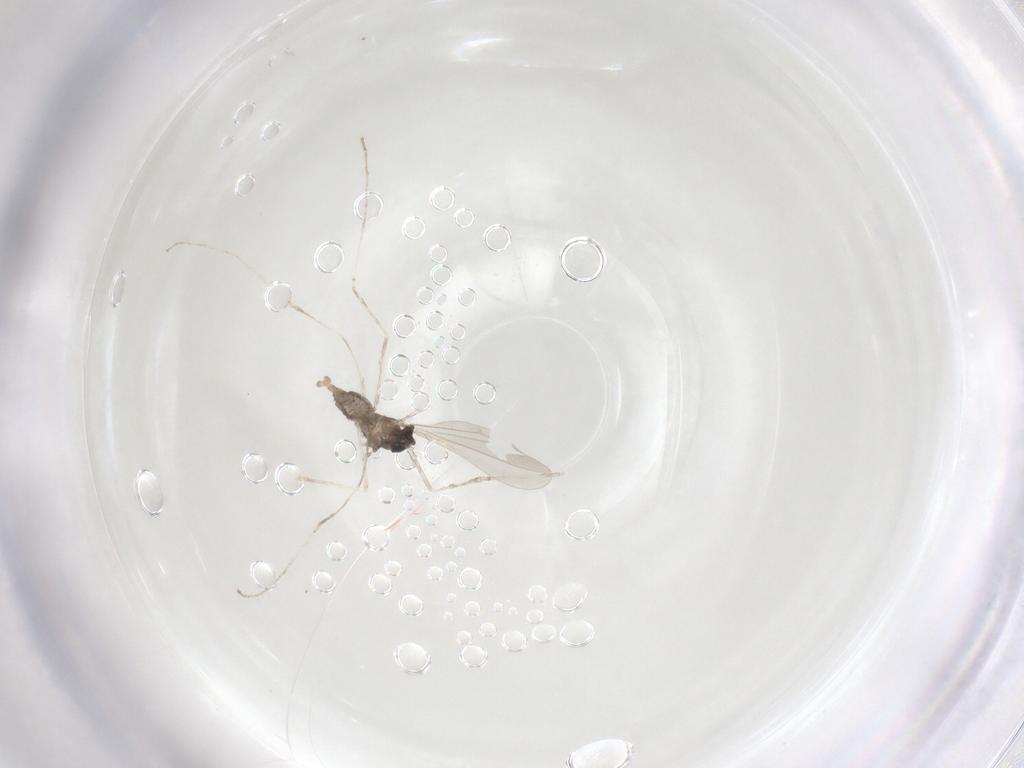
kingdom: Animalia
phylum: Arthropoda
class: Insecta
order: Diptera
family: Cecidomyiidae
